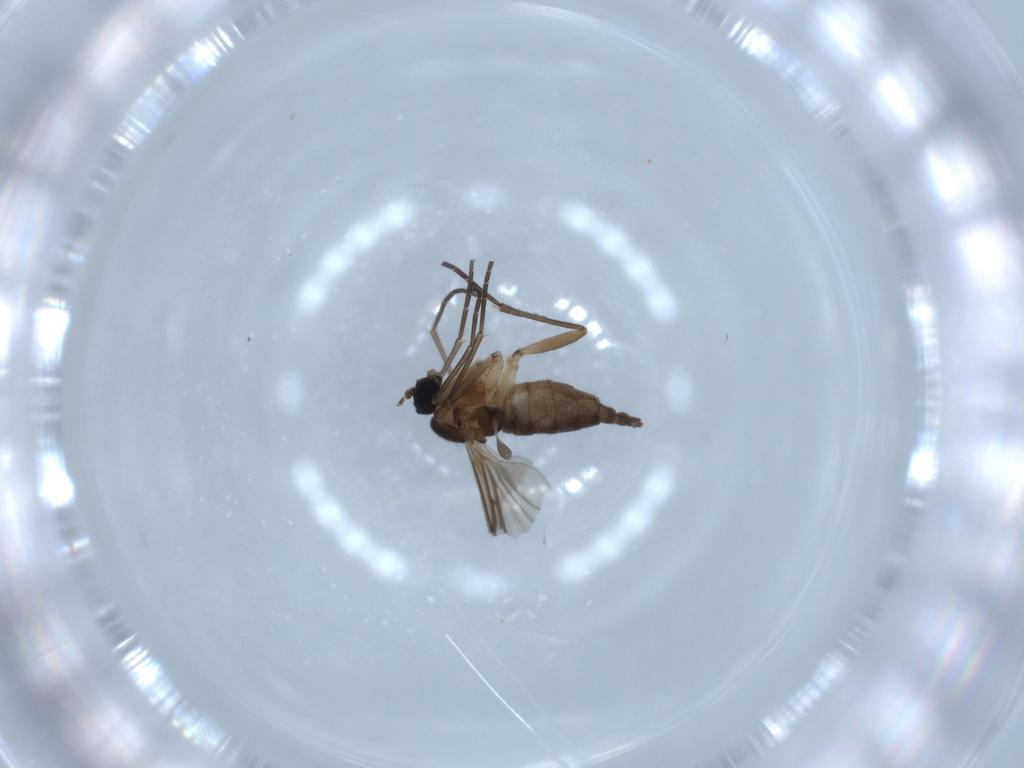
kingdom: Animalia
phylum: Arthropoda
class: Insecta
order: Diptera
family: Sciaridae
